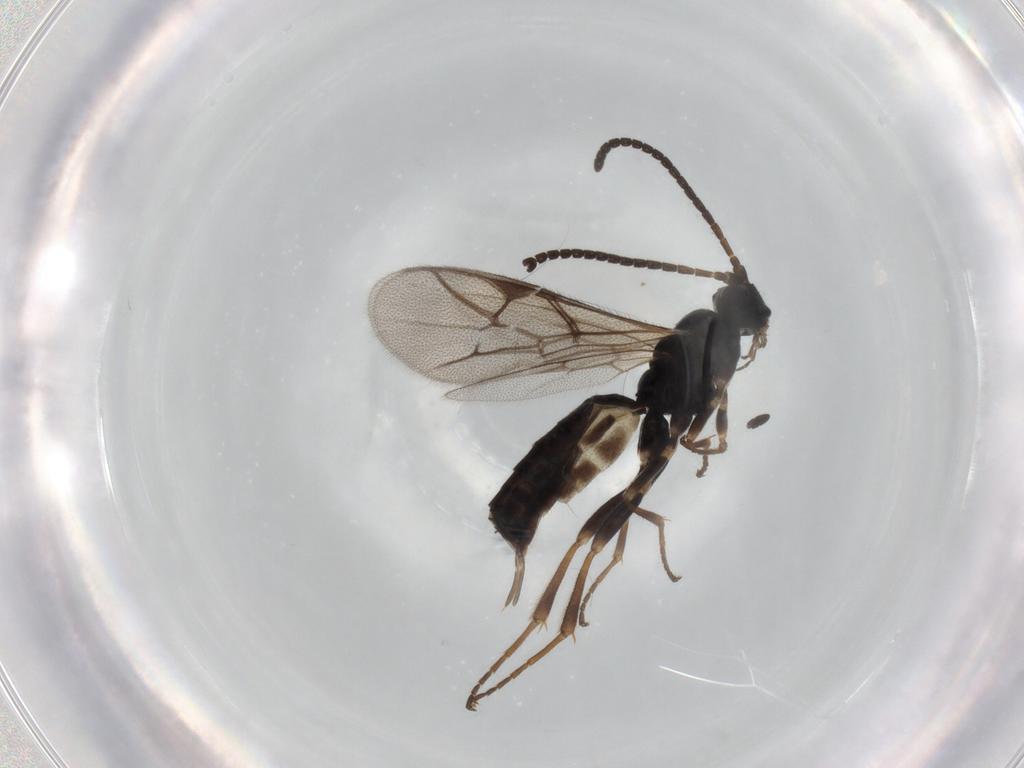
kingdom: Animalia
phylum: Arthropoda
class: Insecta
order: Hymenoptera
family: Ichneumonidae
